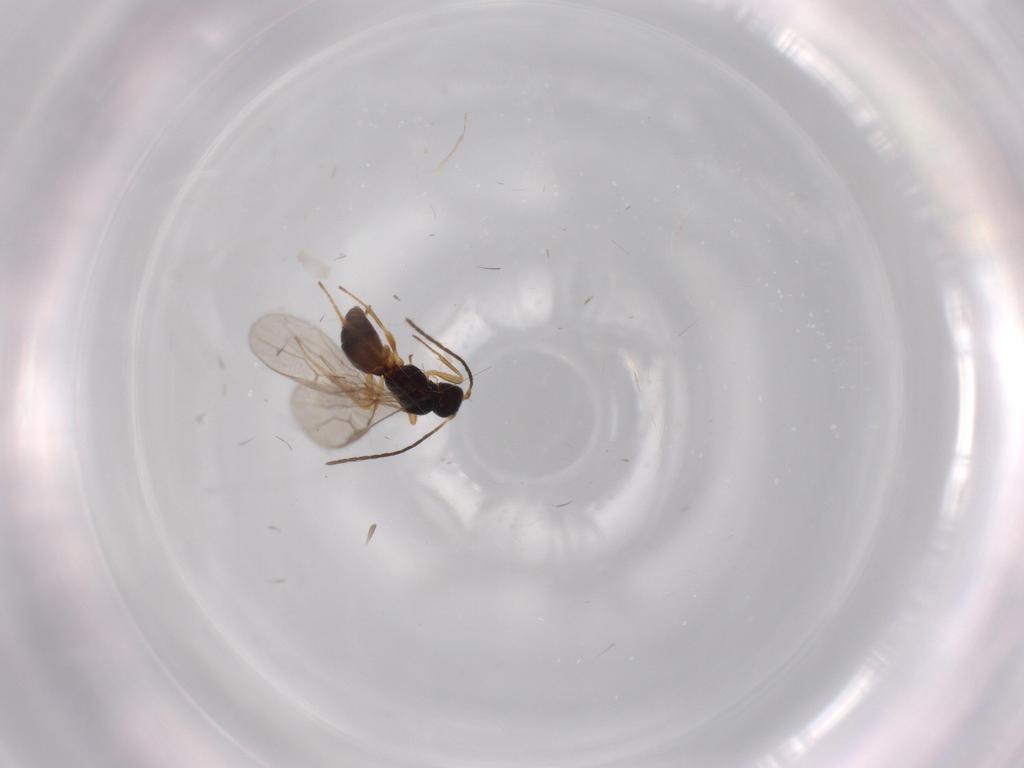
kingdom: Animalia
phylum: Arthropoda
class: Insecta
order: Hymenoptera
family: Braconidae
